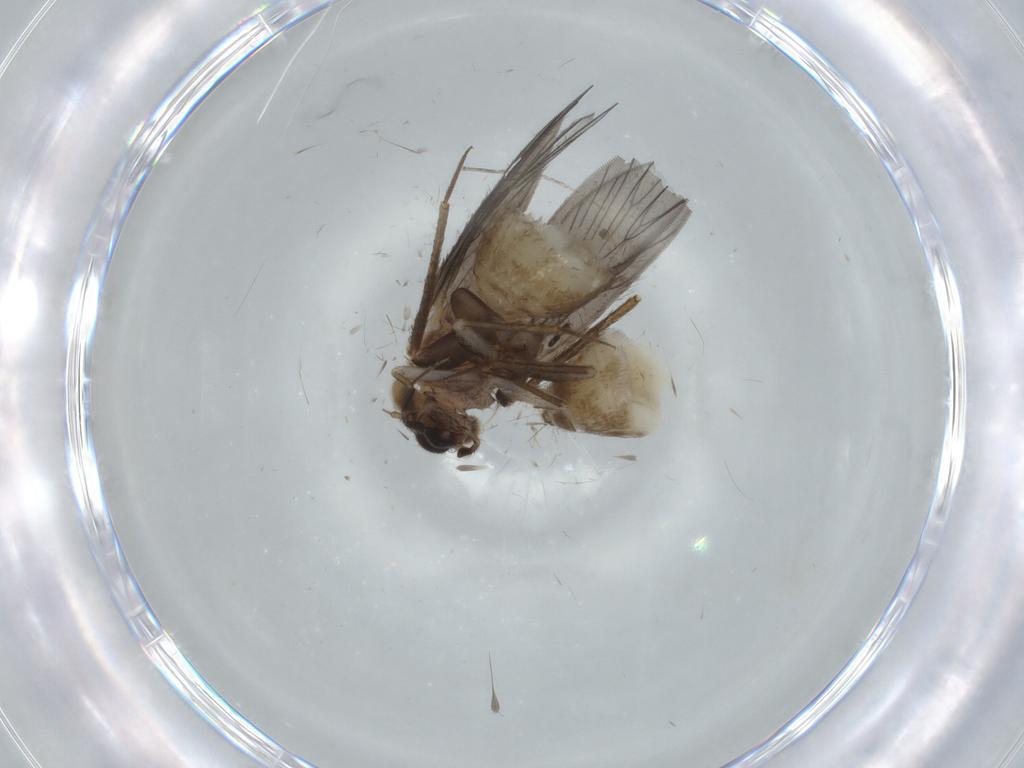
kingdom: Animalia
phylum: Arthropoda
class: Insecta
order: Psocodea
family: Lepidopsocidae
